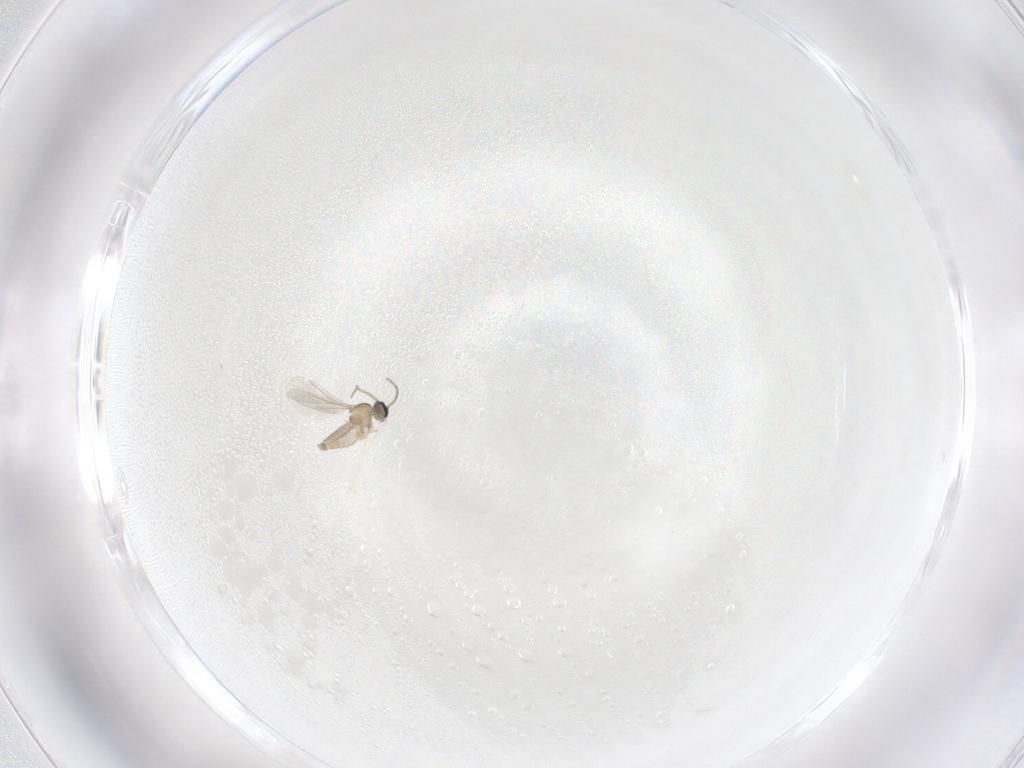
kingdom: Animalia
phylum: Arthropoda
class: Insecta
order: Diptera
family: Cecidomyiidae
